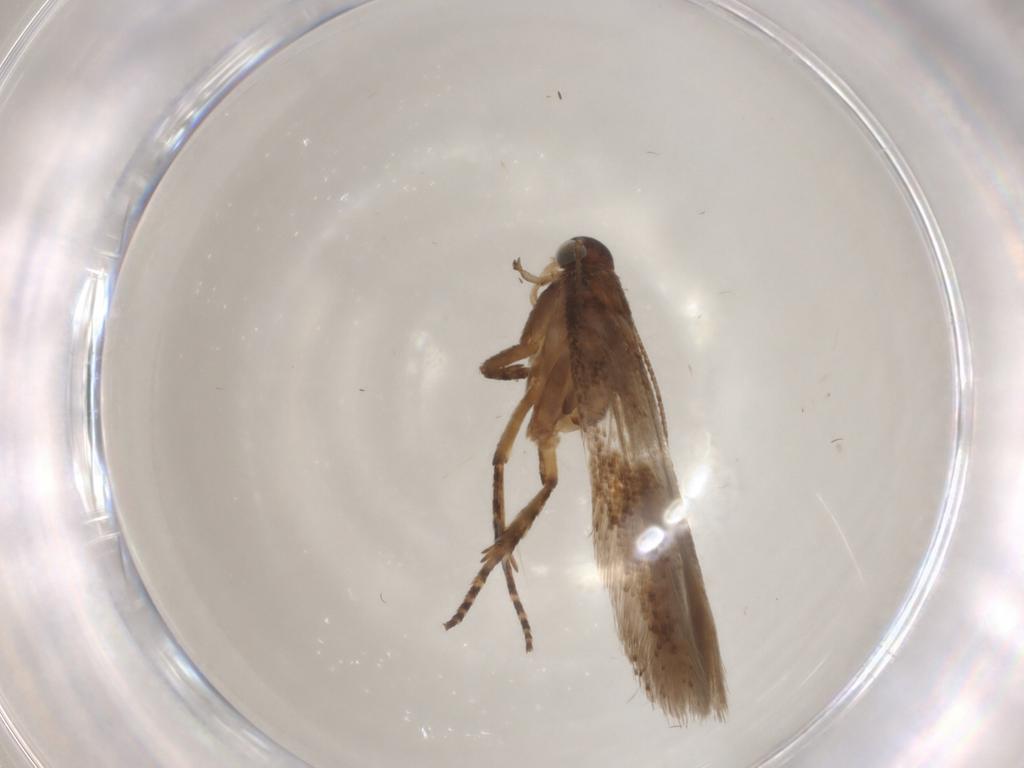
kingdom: Animalia
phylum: Arthropoda
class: Insecta
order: Lepidoptera
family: Gelechiidae
